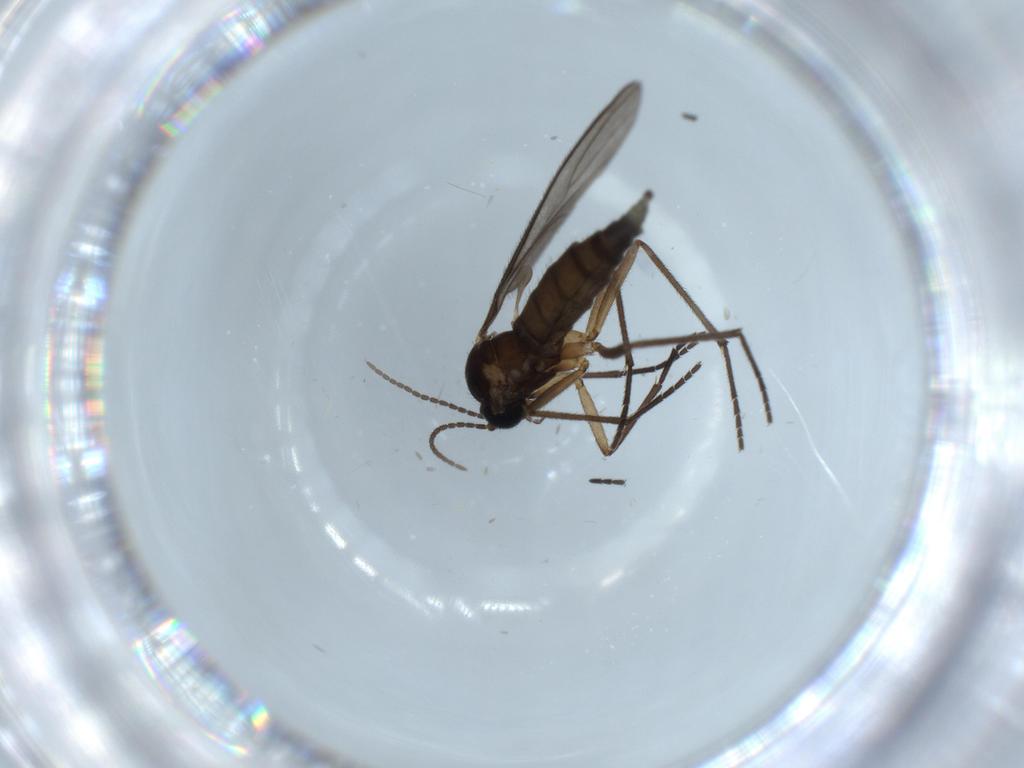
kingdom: Animalia
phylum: Arthropoda
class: Insecta
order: Diptera
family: Sciaridae
